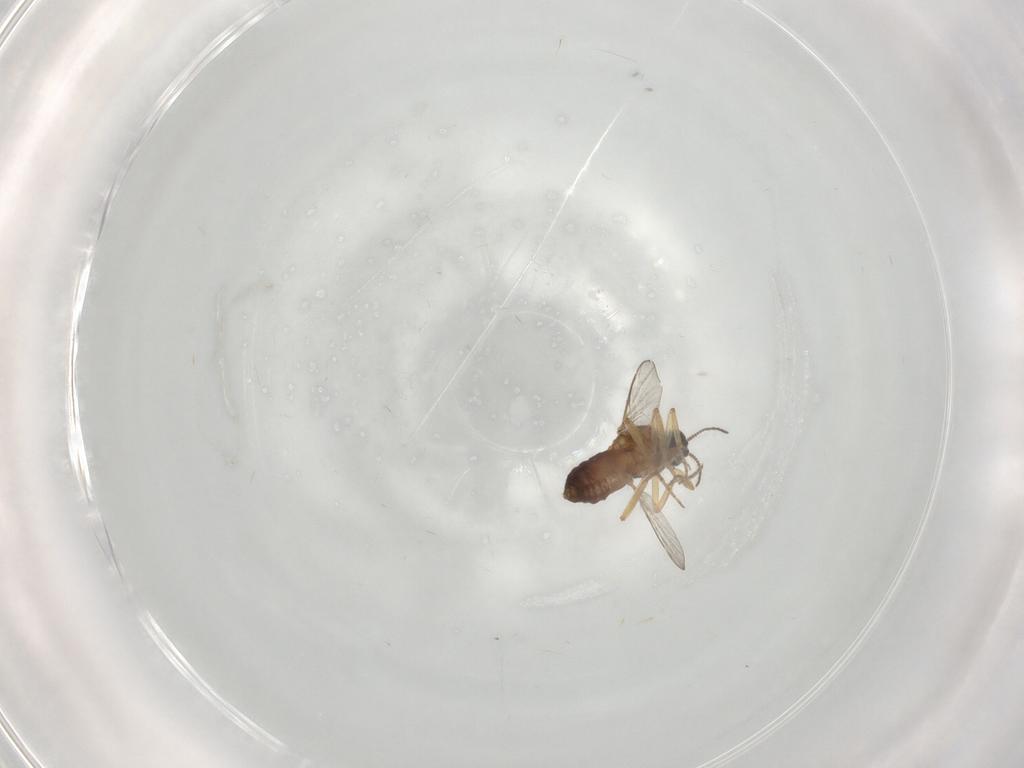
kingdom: Animalia
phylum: Arthropoda
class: Insecta
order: Diptera
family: Ceratopogonidae
